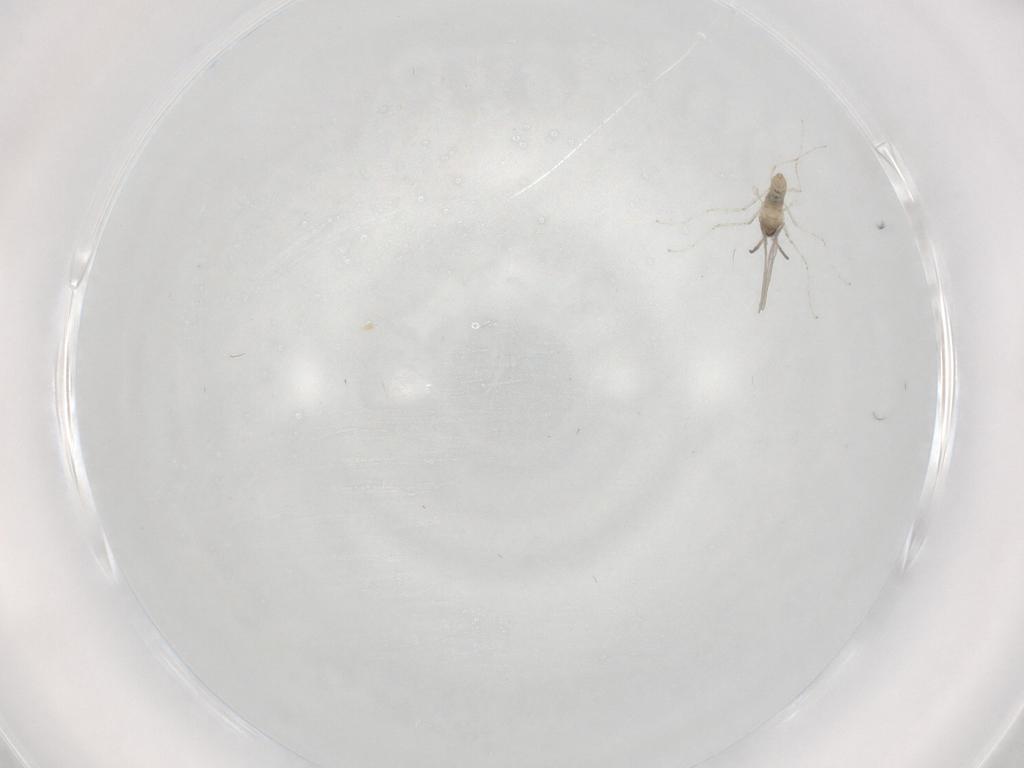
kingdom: Animalia
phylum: Arthropoda
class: Insecta
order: Diptera
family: Cecidomyiidae
